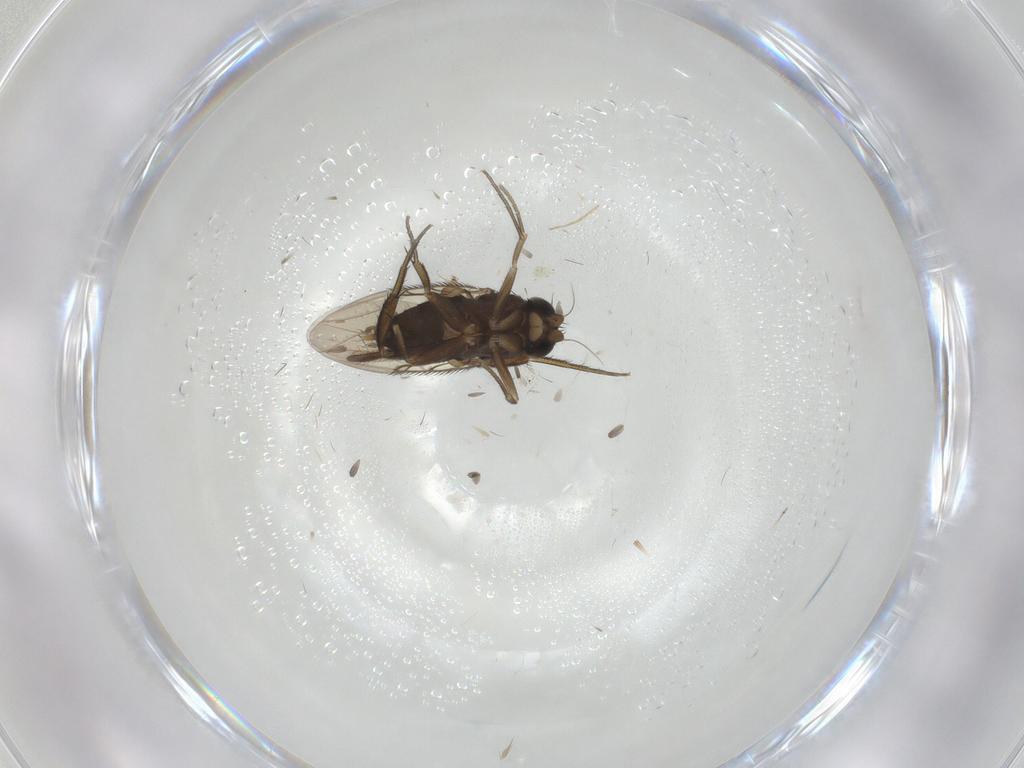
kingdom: Animalia
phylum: Arthropoda
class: Insecta
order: Diptera
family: Chironomidae
